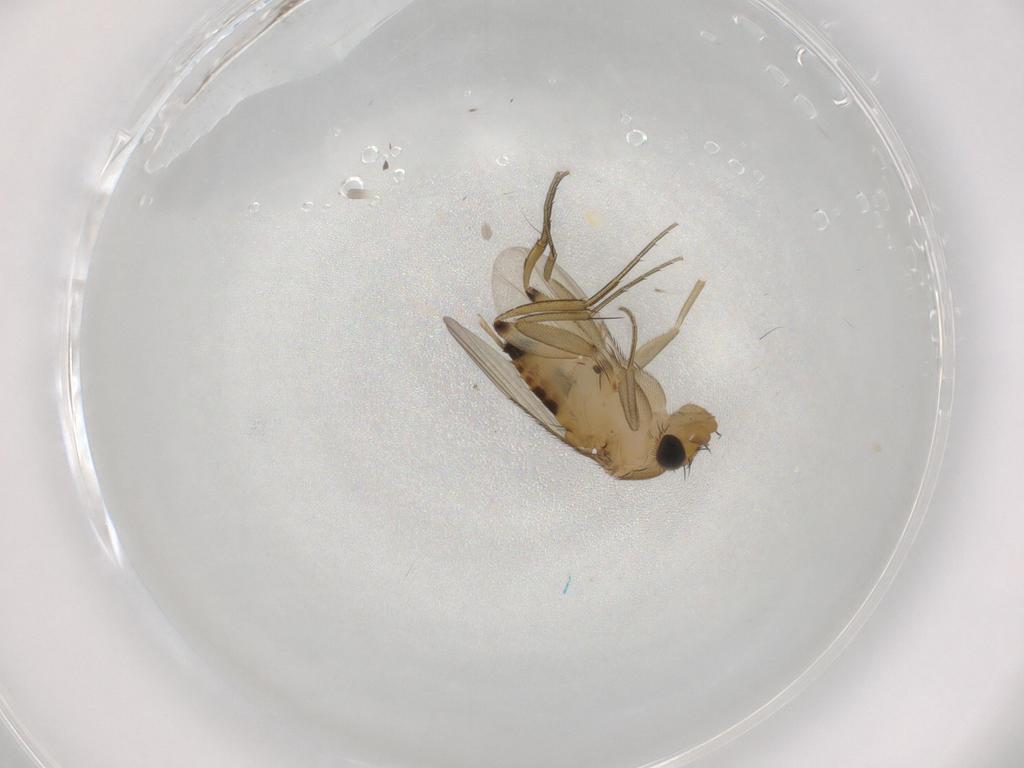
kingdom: Animalia
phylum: Arthropoda
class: Insecta
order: Diptera
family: Phoridae
